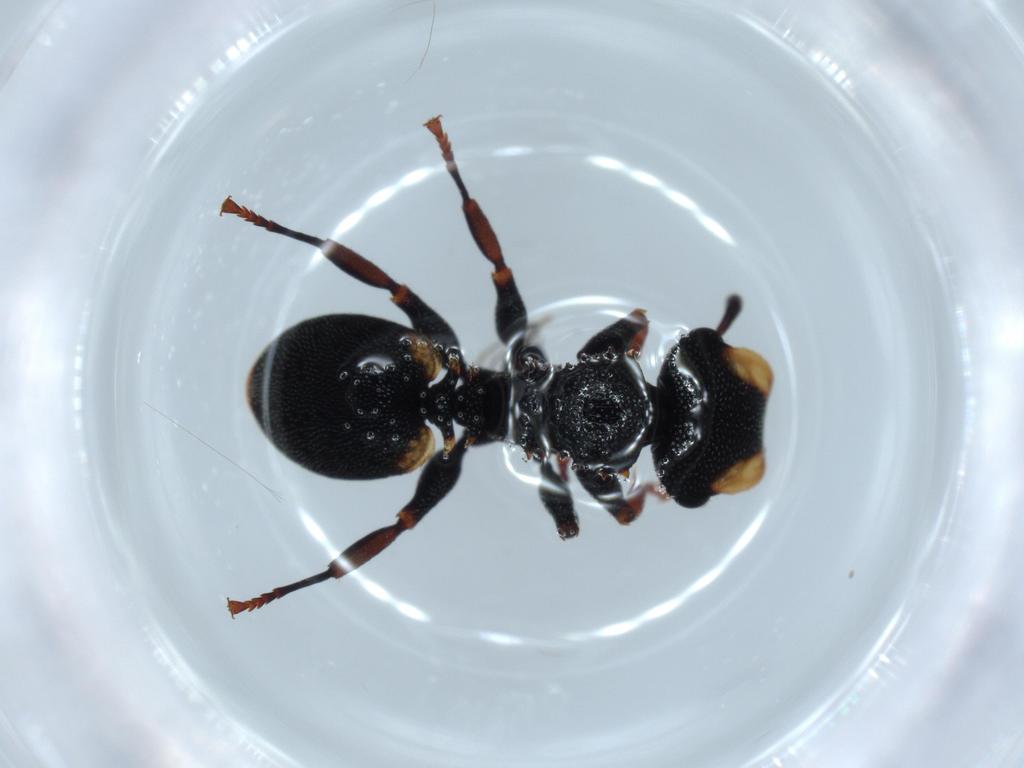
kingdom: Animalia
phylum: Arthropoda
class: Insecta
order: Hymenoptera
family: Formicidae
